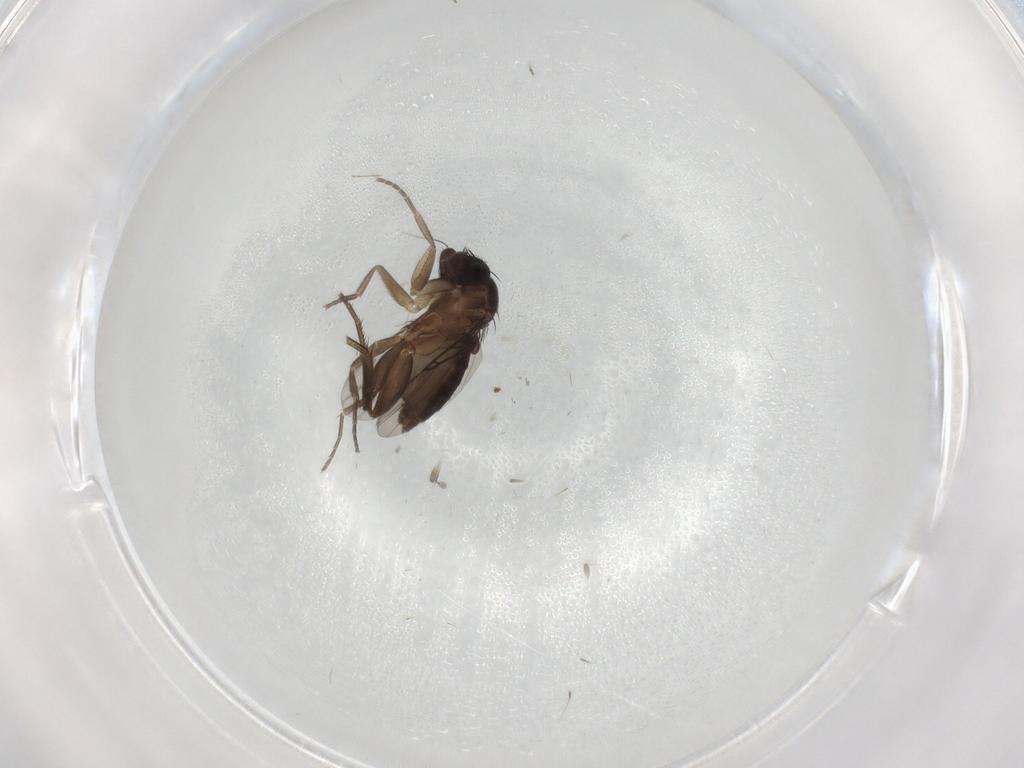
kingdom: Animalia
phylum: Arthropoda
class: Insecta
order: Diptera
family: Phoridae
